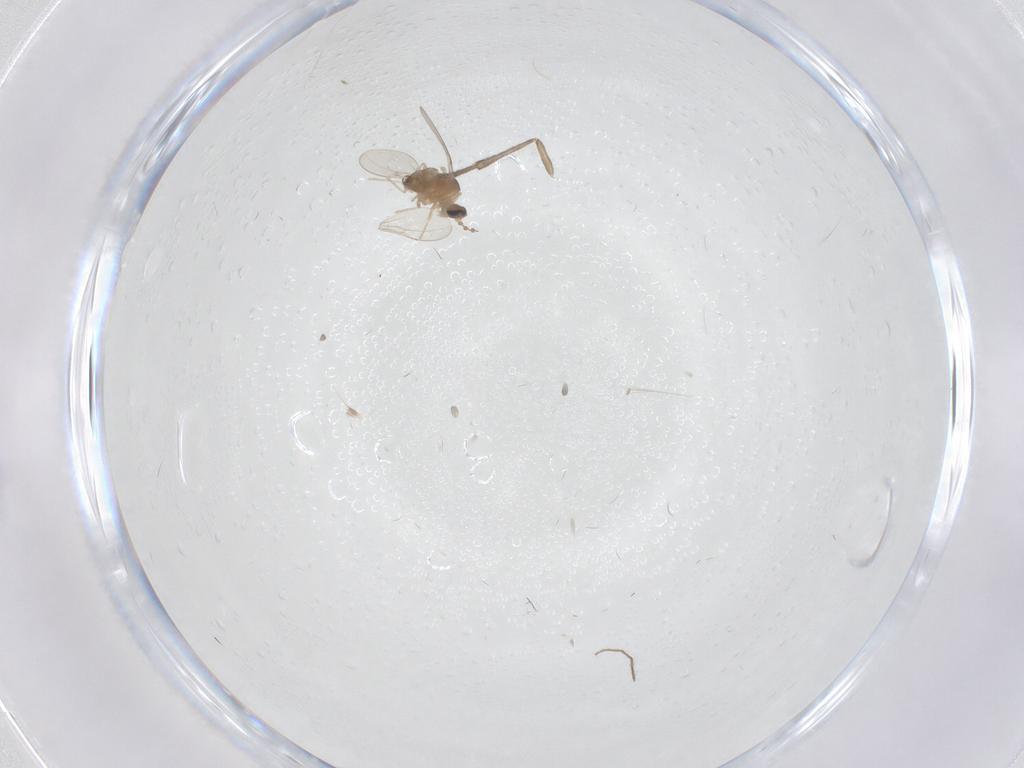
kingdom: Animalia
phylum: Arthropoda
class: Insecta
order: Diptera
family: Psychodidae
